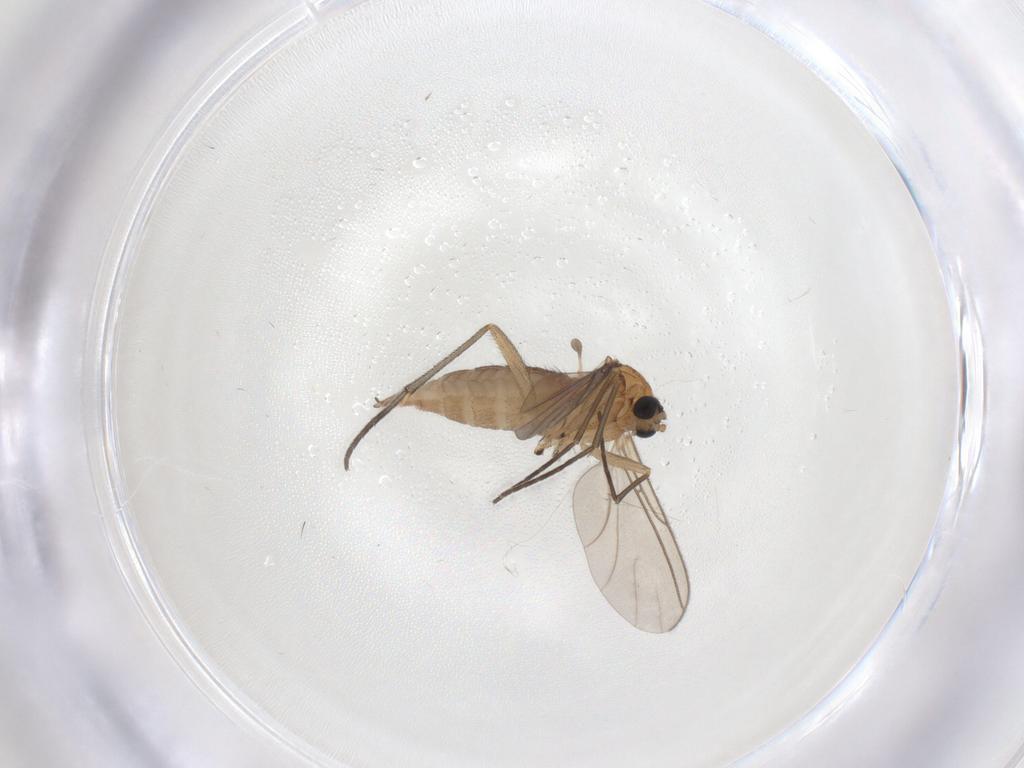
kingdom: Animalia
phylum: Arthropoda
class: Insecta
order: Diptera
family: Sciaridae
